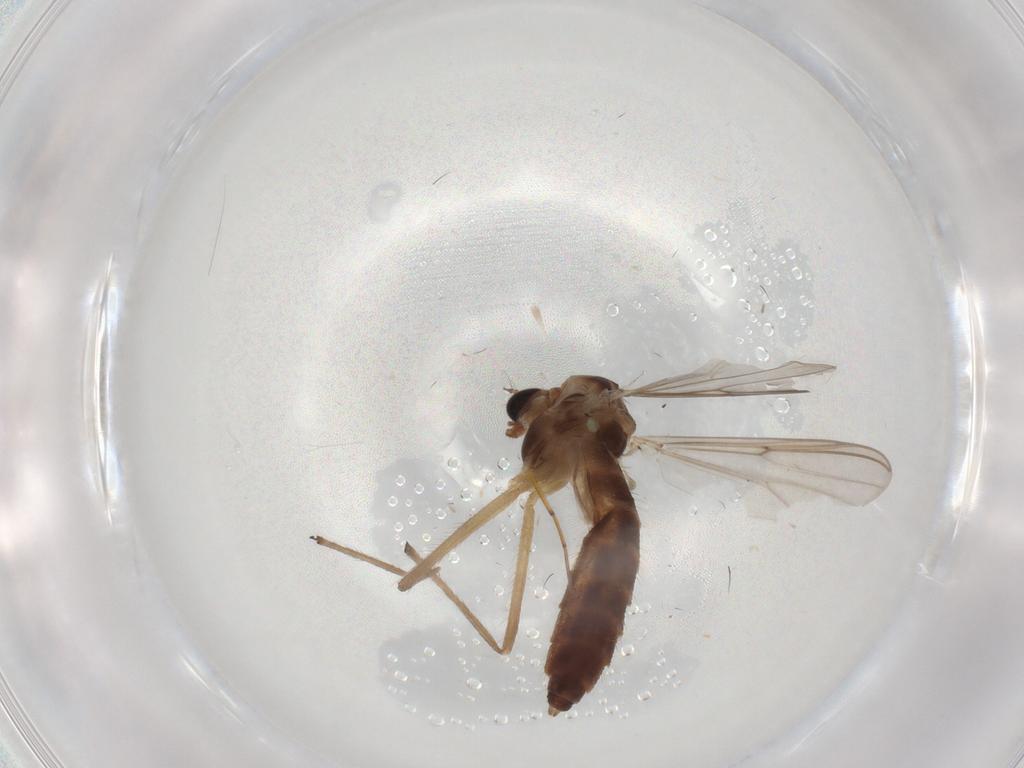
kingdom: Animalia
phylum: Arthropoda
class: Insecta
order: Diptera
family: Chironomidae
